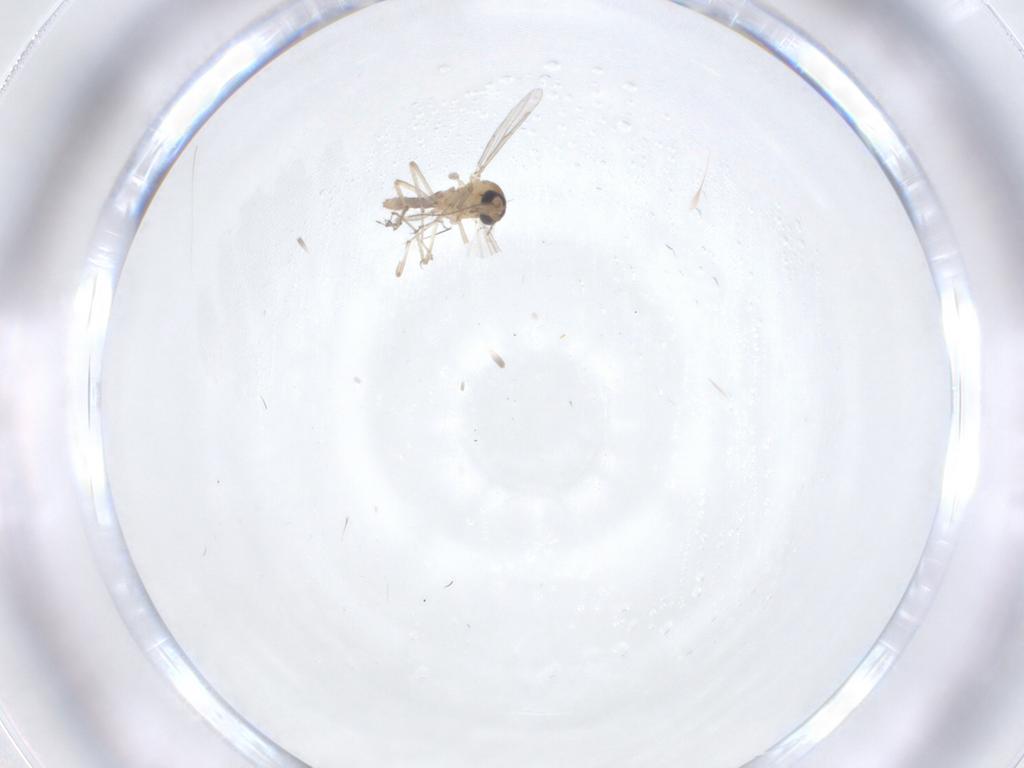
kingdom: Animalia
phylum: Arthropoda
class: Insecta
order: Diptera
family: Ceratopogonidae
